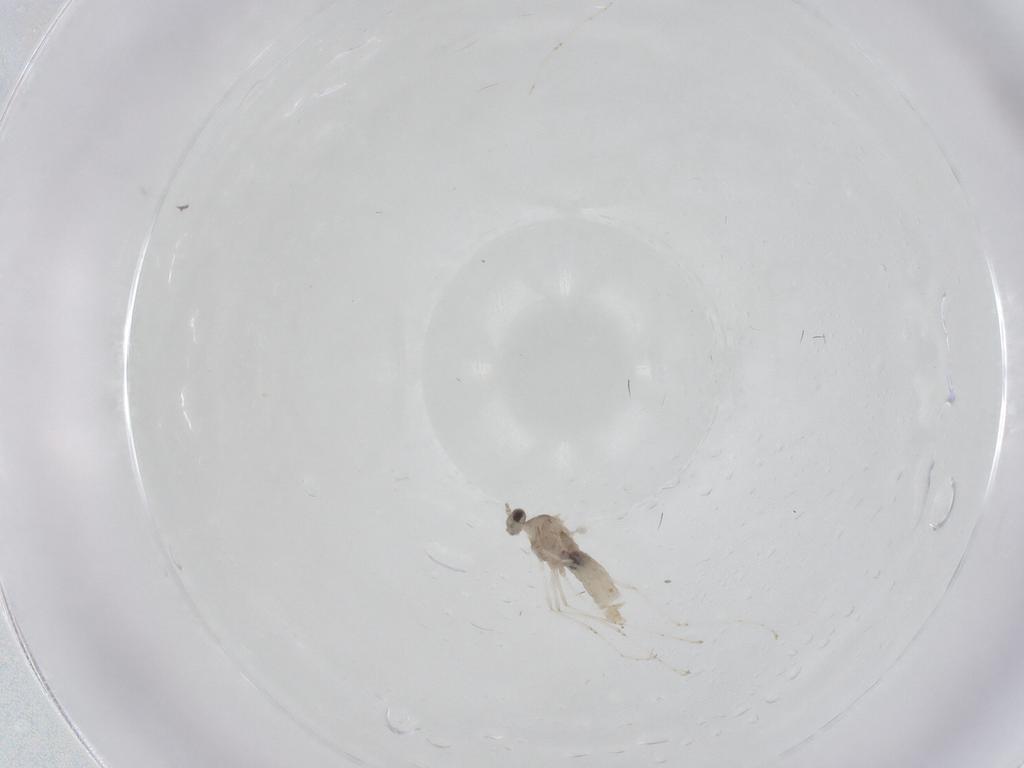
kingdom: Animalia
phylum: Arthropoda
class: Insecta
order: Diptera
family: Cecidomyiidae
